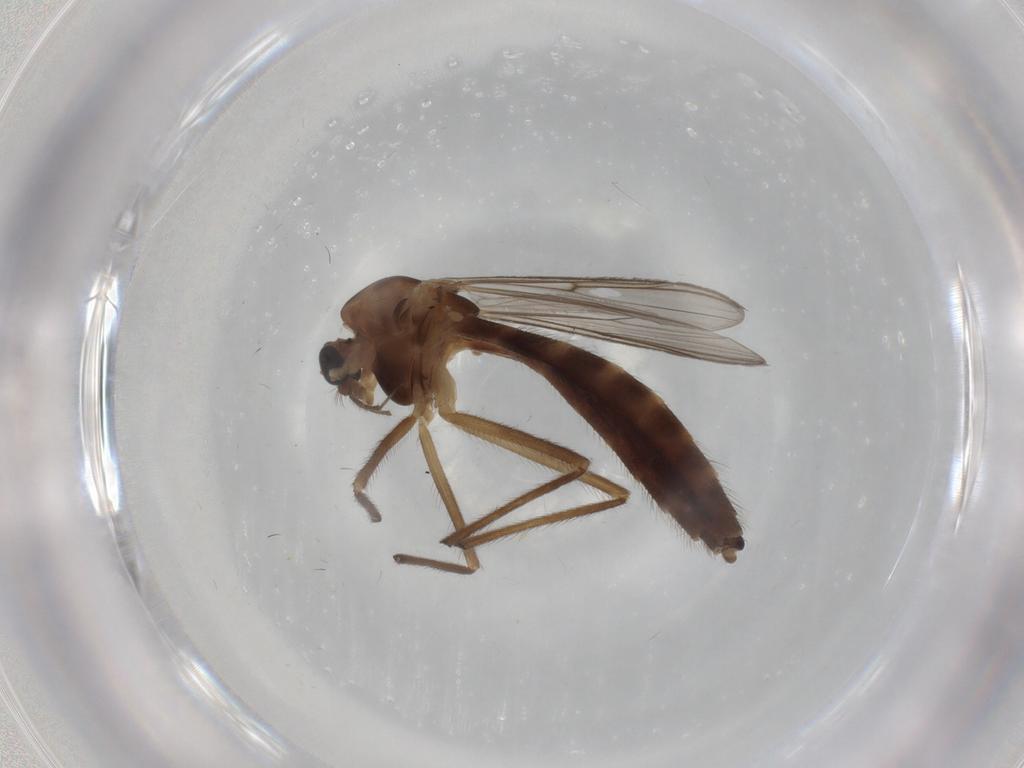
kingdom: Animalia
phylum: Arthropoda
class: Insecta
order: Diptera
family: Chironomidae
